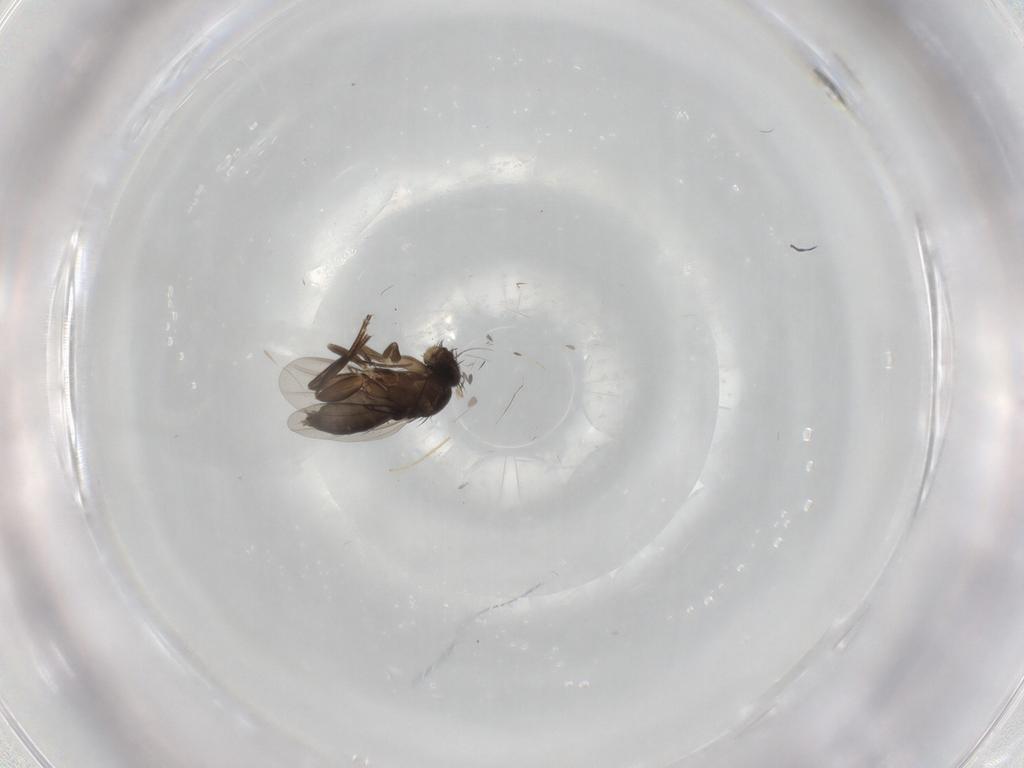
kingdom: Animalia
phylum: Arthropoda
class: Insecta
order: Diptera
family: Phoridae
